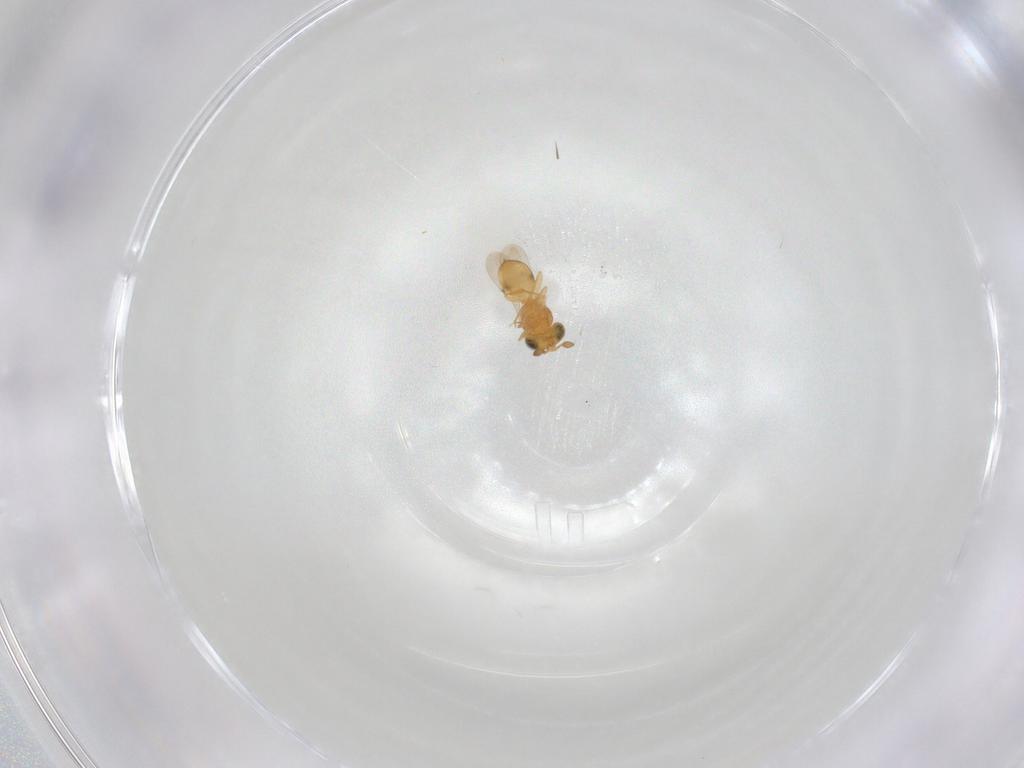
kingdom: Animalia
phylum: Arthropoda
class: Insecta
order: Hymenoptera
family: Scelionidae
